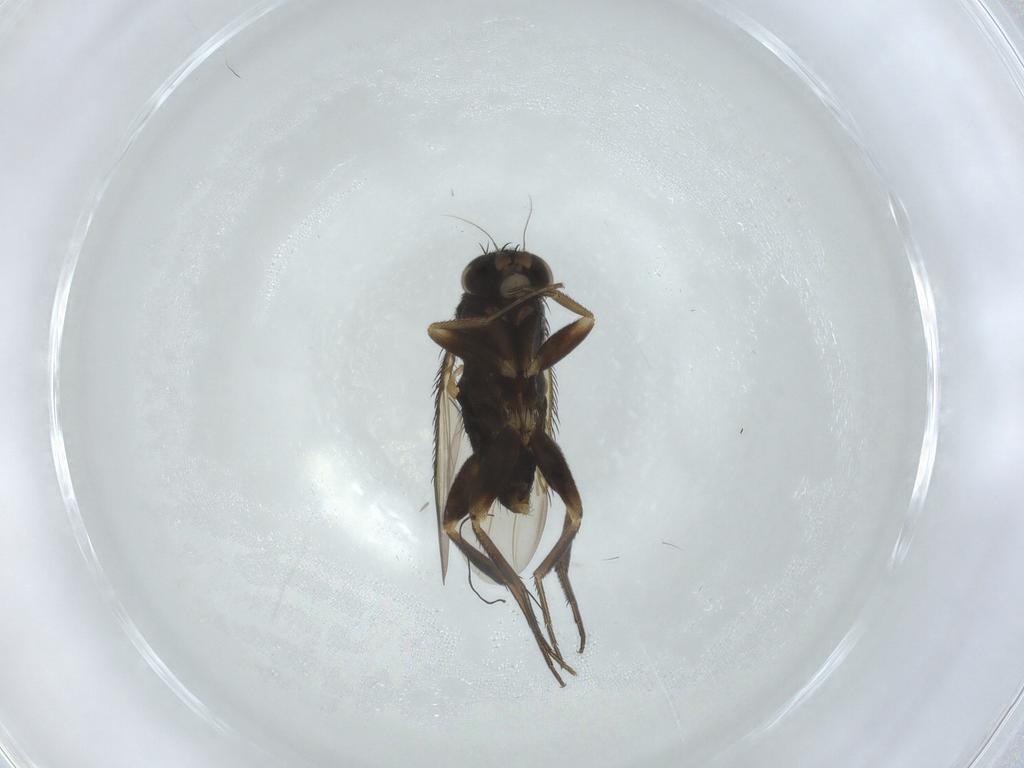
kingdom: Animalia
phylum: Arthropoda
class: Insecta
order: Diptera
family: Phoridae
